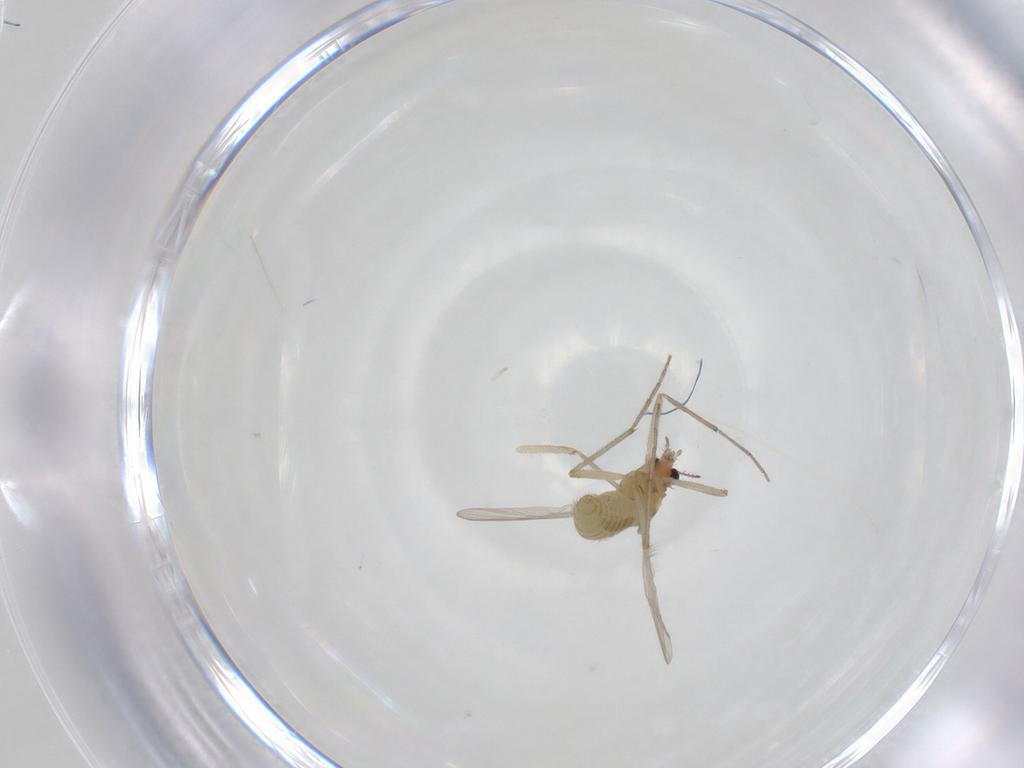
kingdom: Animalia
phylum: Arthropoda
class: Insecta
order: Diptera
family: Chironomidae
